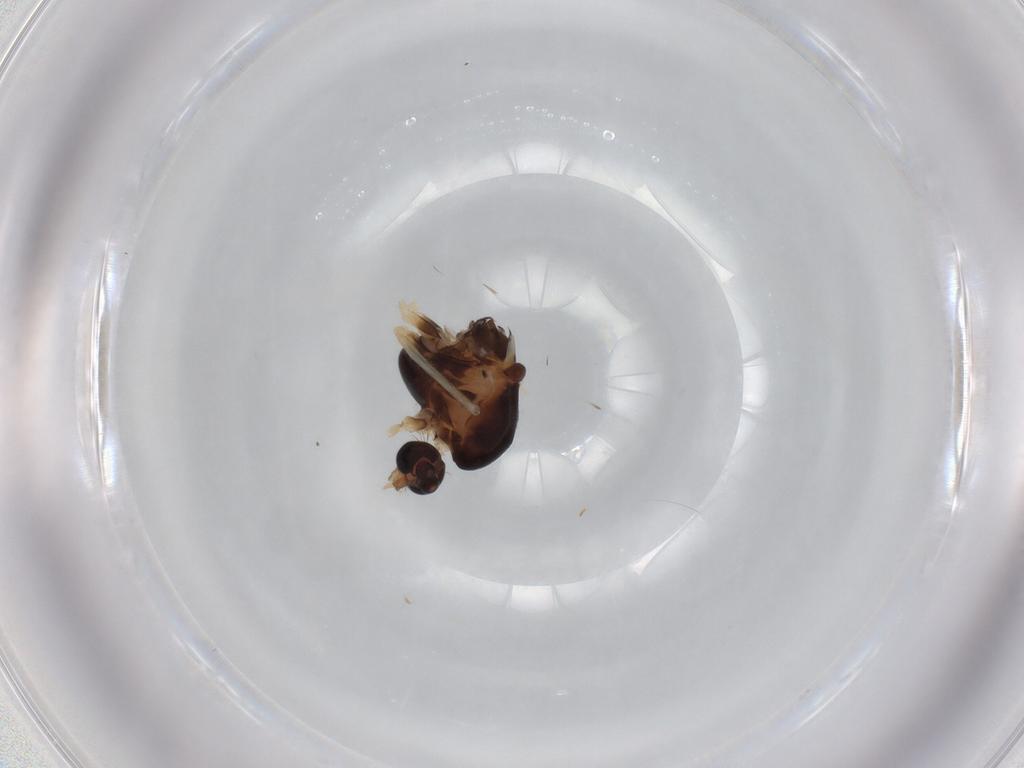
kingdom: Animalia
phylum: Arthropoda
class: Insecta
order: Diptera
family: Chironomidae
